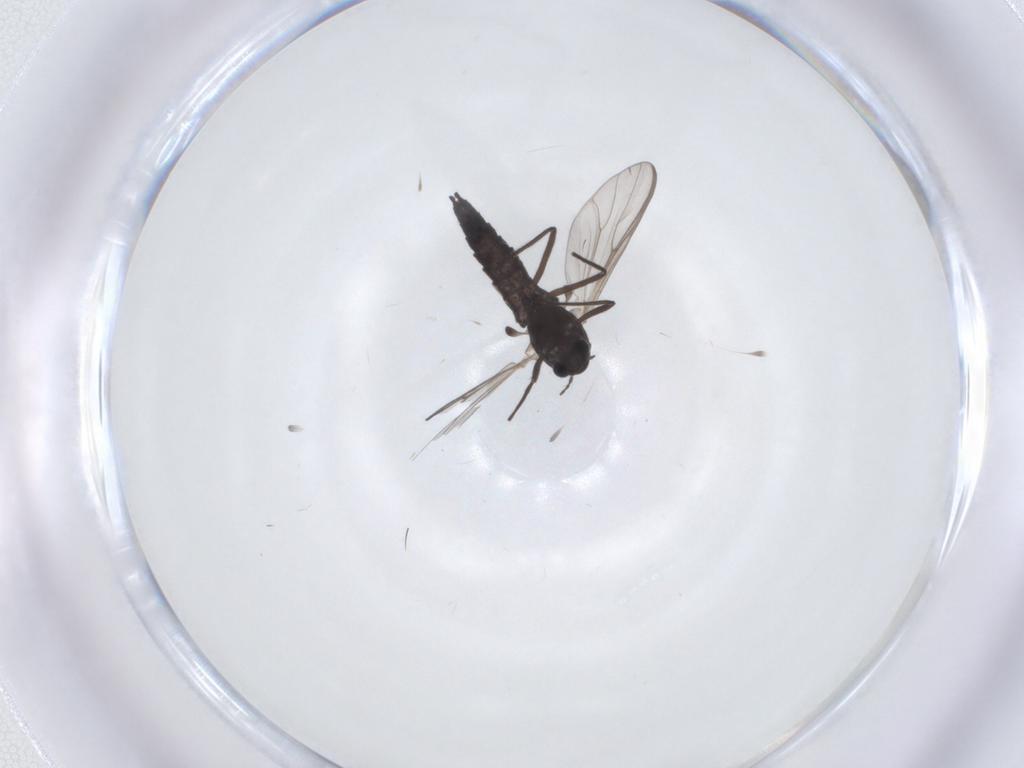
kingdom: Animalia
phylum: Arthropoda
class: Insecta
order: Diptera
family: Chironomidae
